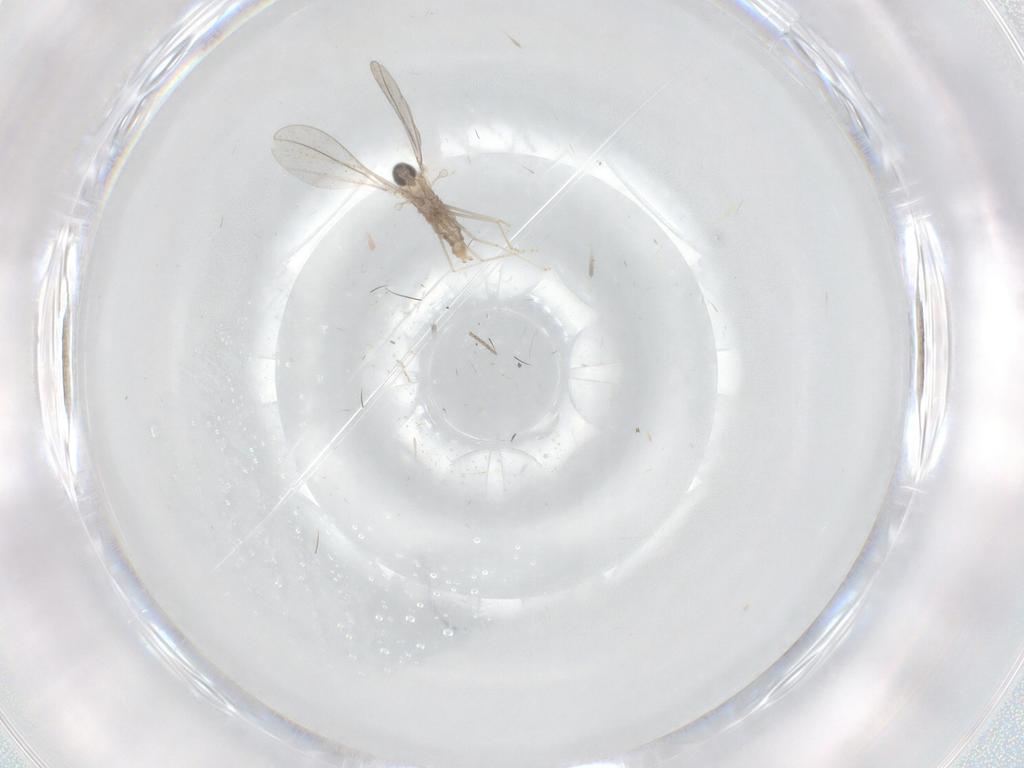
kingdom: Animalia
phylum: Arthropoda
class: Insecta
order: Diptera
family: Cecidomyiidae
